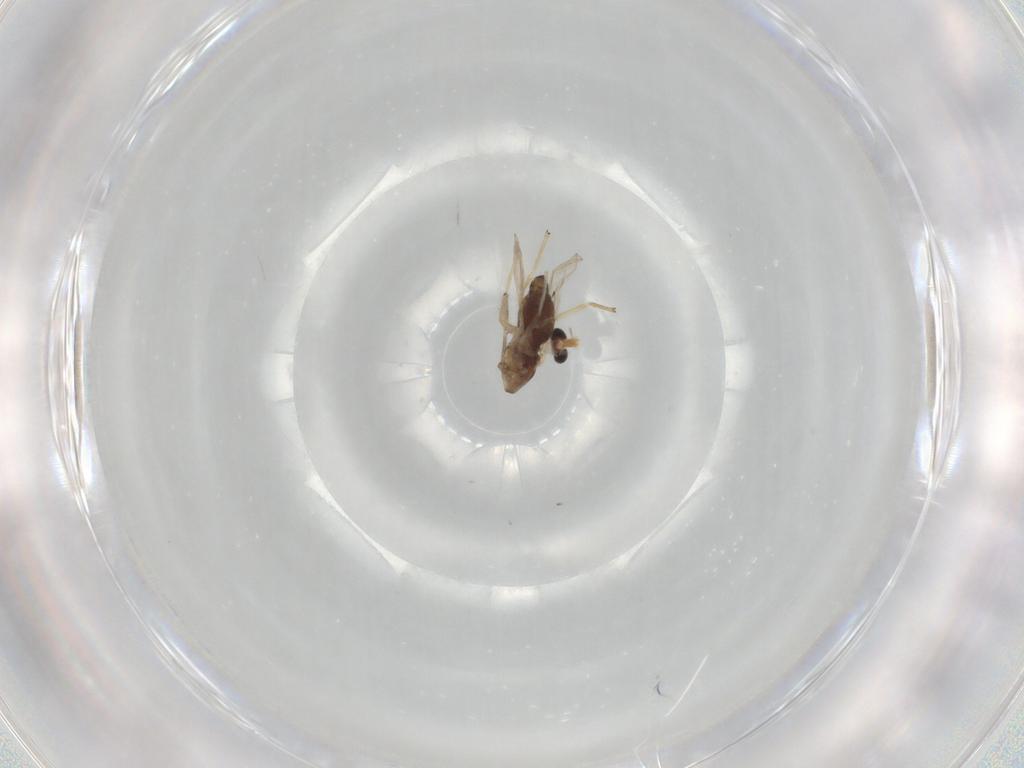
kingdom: Animalia
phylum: Arthropoda
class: Insecta
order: Diptera
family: Chironomidae
